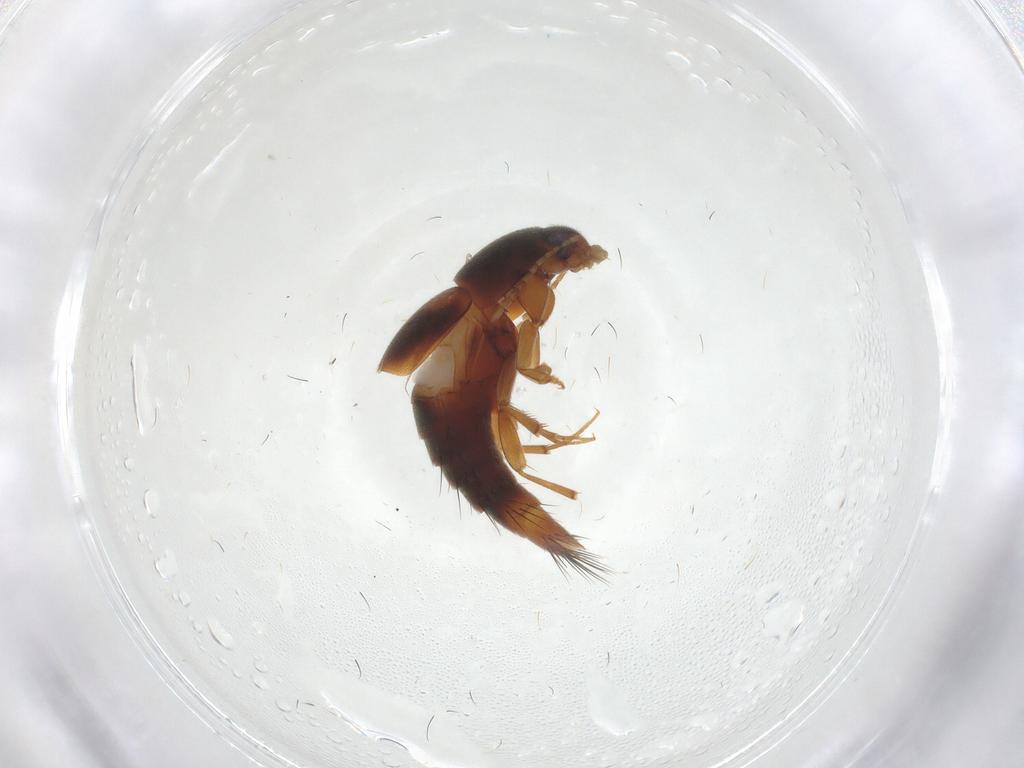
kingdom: Animalia
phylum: Arthropoda
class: Insecta
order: Coleoptera
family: Staphylinidae
